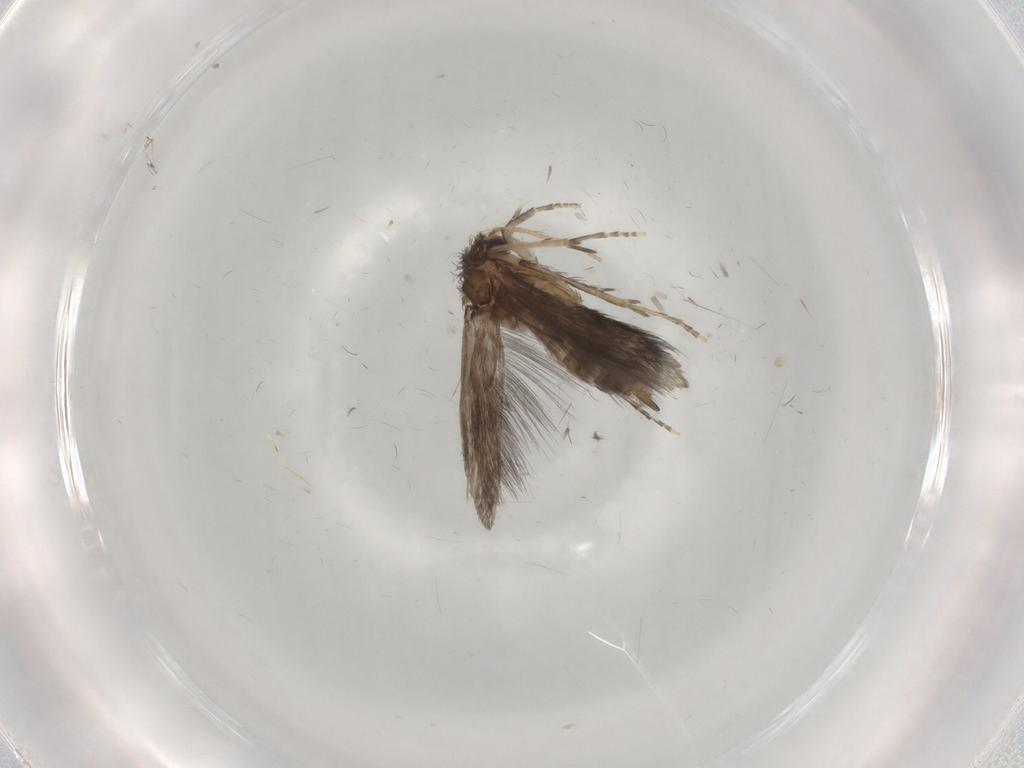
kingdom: Animalia
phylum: Arthropoda
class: Insecta
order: Trichoptera
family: Hydroptilidae
